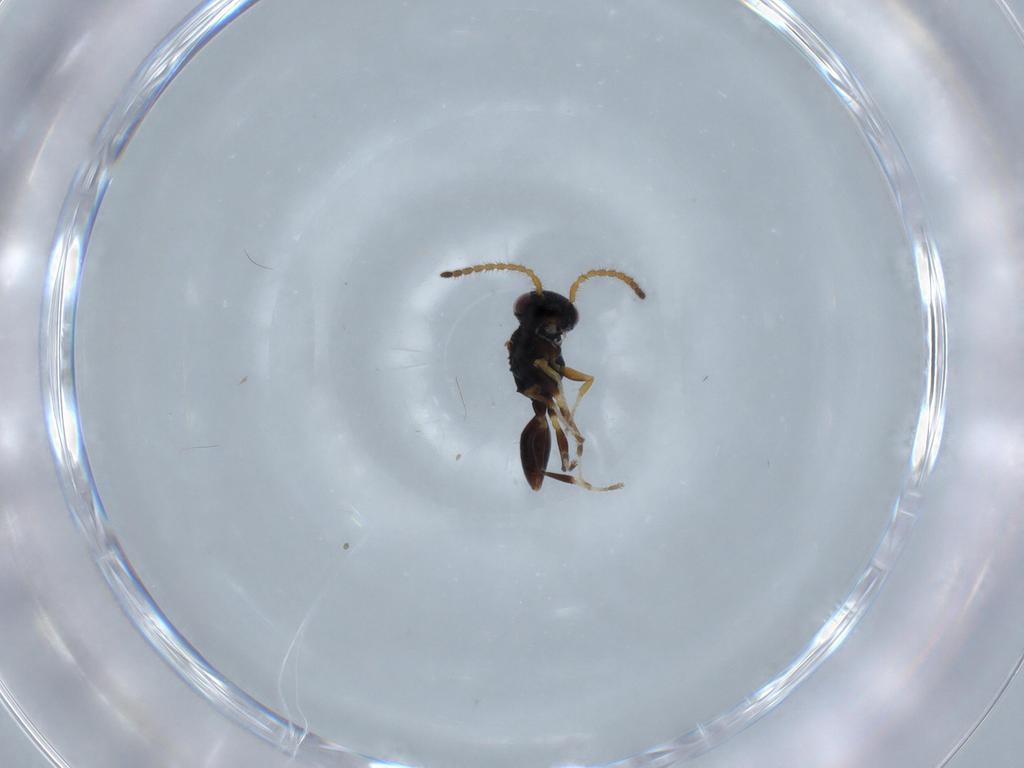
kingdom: Animalia
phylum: Arthropoda
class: Insecta
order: Hymenoptera
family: Dryinidae
